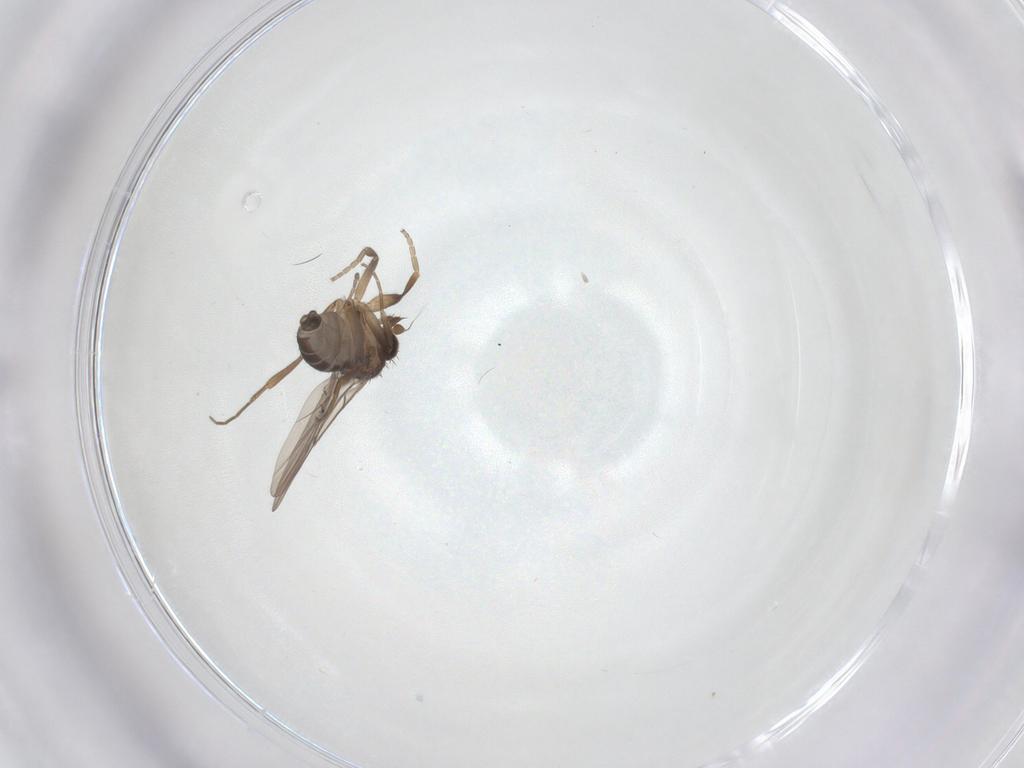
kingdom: Animalia
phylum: Arthropoda
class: Insecta
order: Diptera
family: Phoridae
